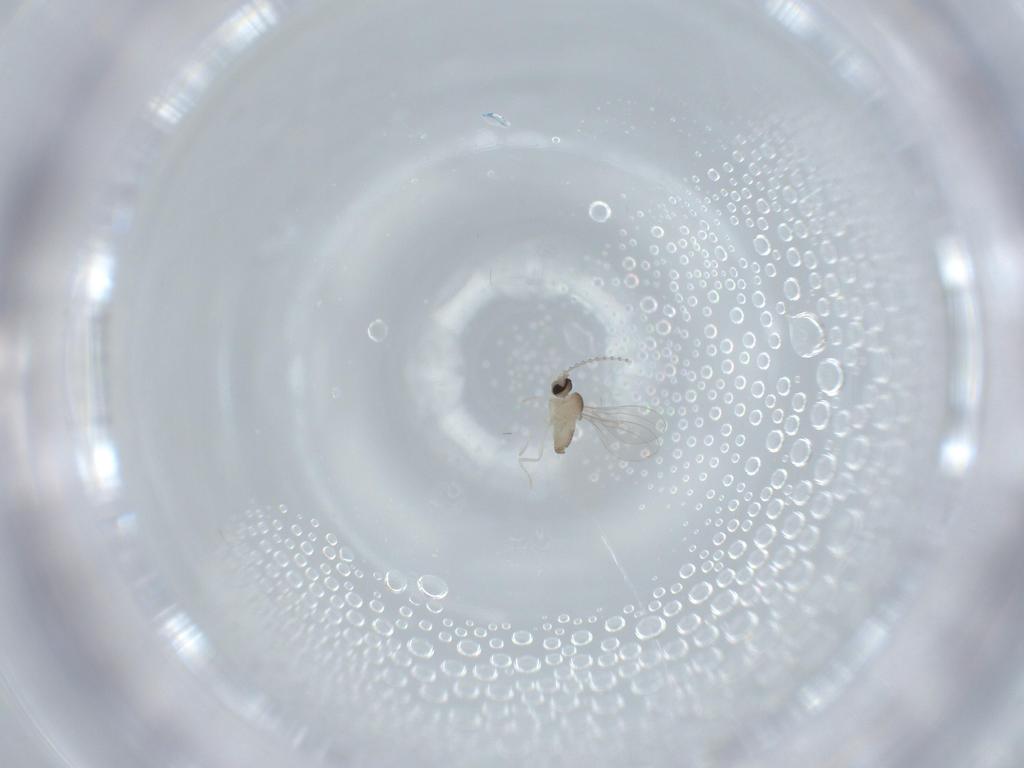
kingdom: Animalia
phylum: Arthropoda
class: Insecta
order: Diptera
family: Cecidomyiidae
